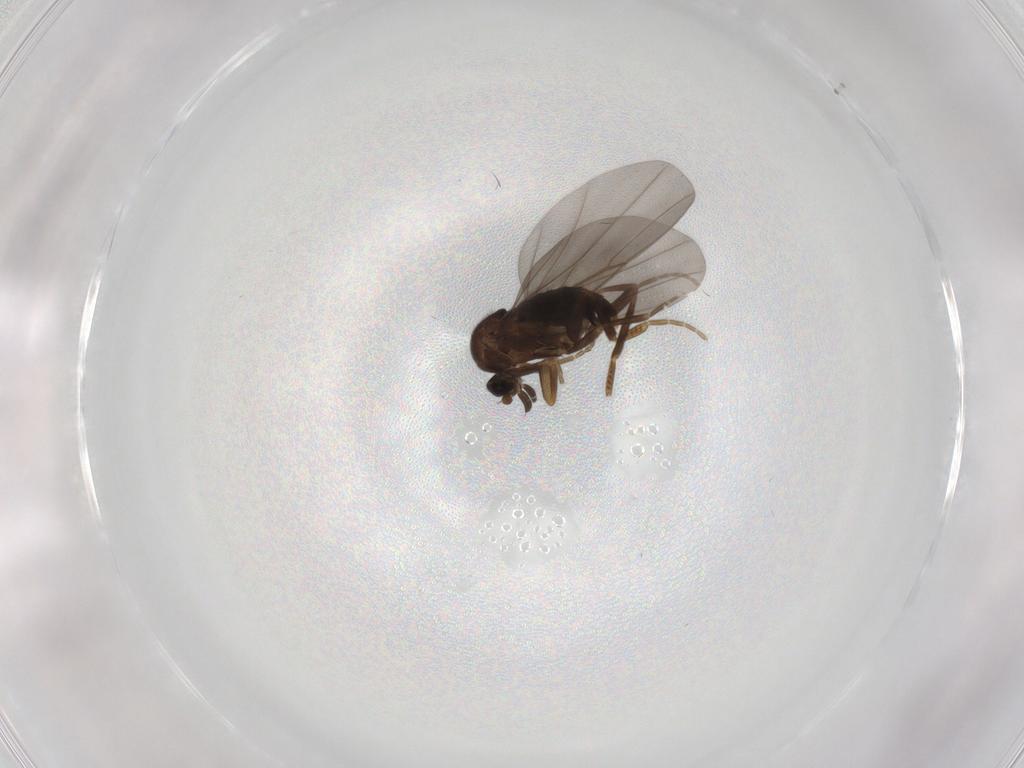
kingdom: Animalia
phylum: Arthropoda
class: Insecta
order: Diptera
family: Phoridae
